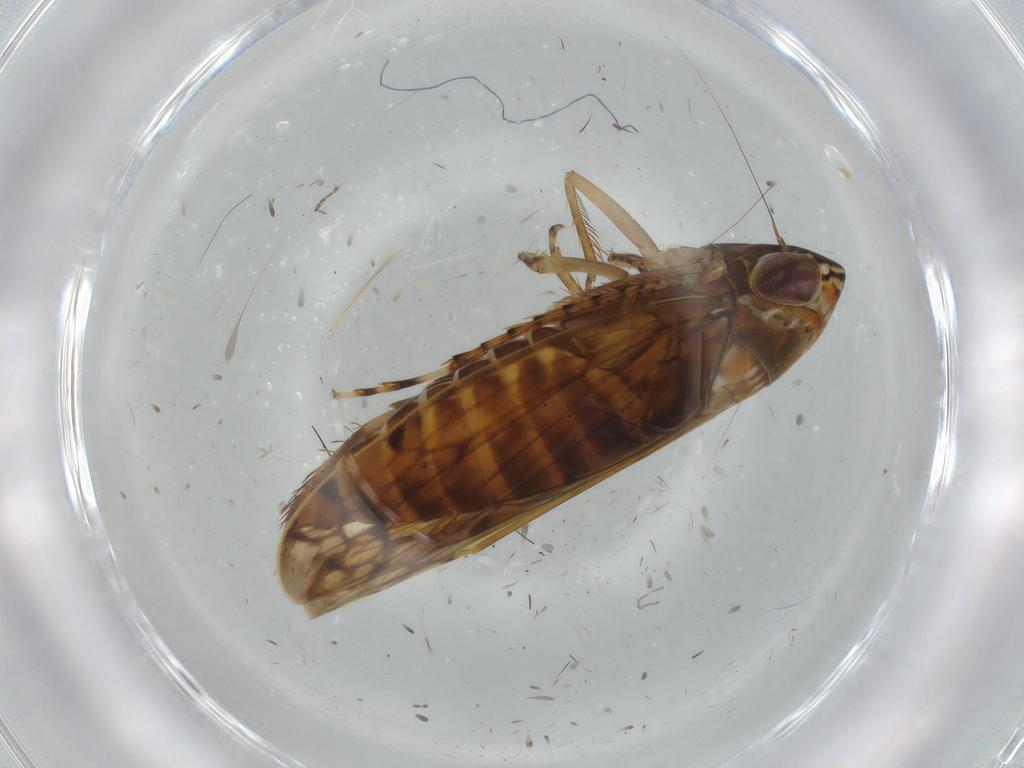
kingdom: Animalia
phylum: Arthropoda
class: Insecta
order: Hemiptera
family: Cicadellidae
